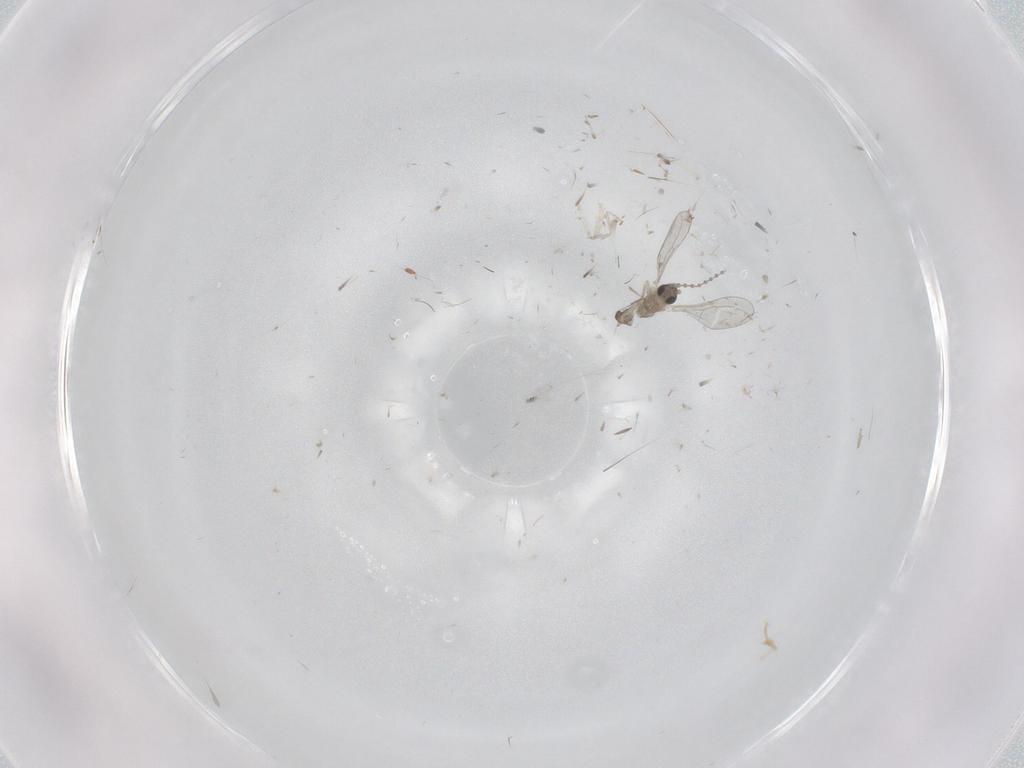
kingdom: Animalia
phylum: Arthropoda
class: Insecta
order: Diptera
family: Cecidomyiidae
